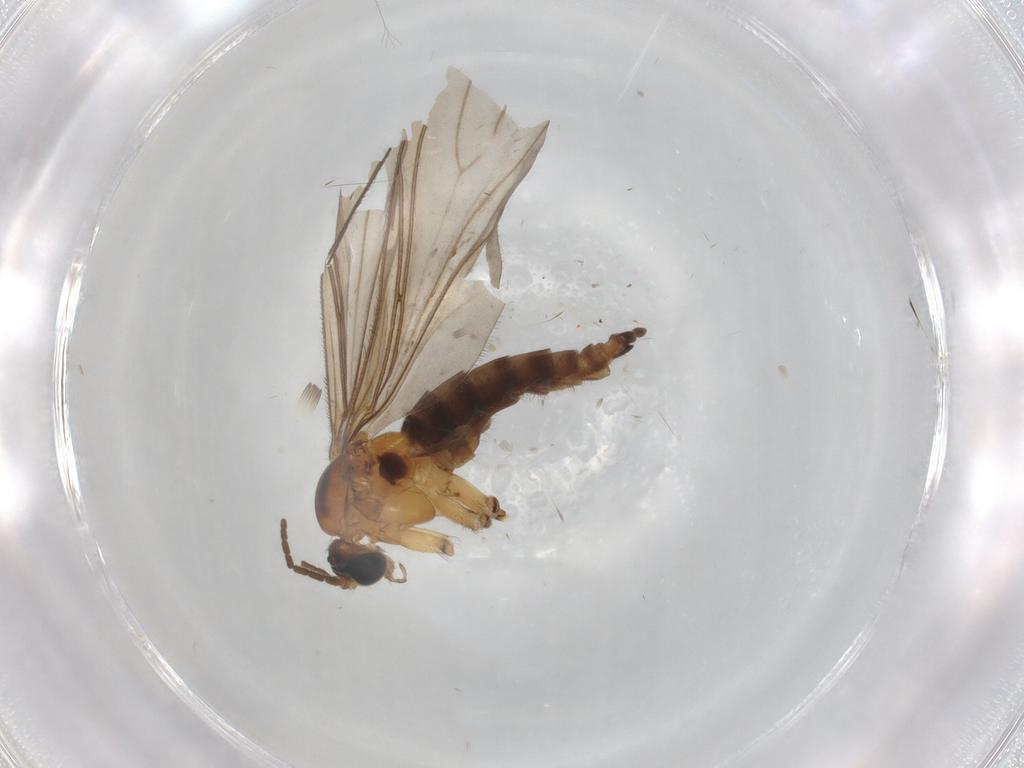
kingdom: Animalia
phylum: Arthropoda
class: Insecta
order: Diptera
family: Sciaridae
